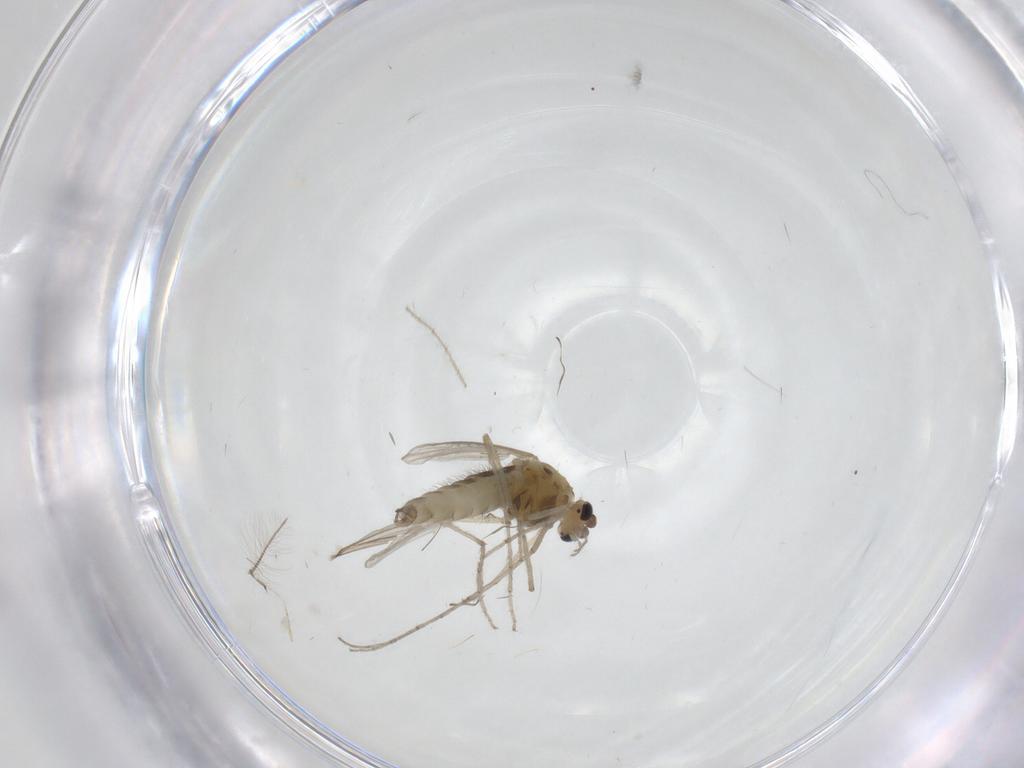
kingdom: Animalia
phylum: Arthropoda
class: Insecta
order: Diptera
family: Chironomidae
